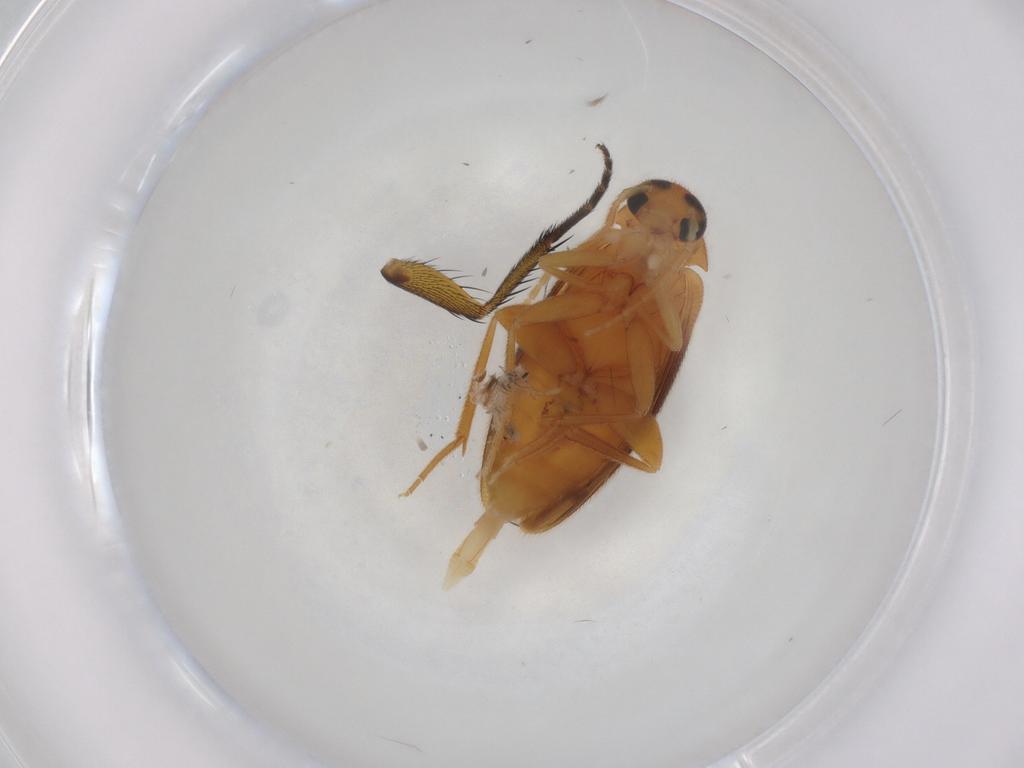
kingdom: Animalia
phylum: Arthropoda
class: Insecta
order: Coleoptera
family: Scraptiidae
